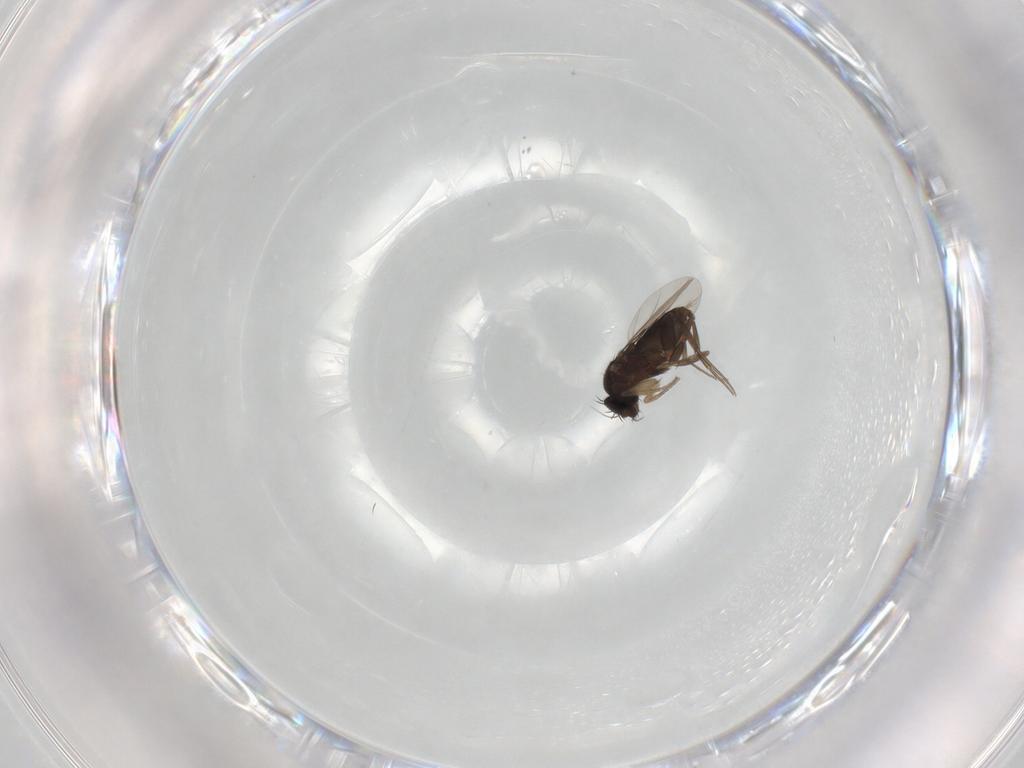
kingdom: Animalia
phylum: Arthropoda
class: Insecta
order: Diptera
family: Phoridae
